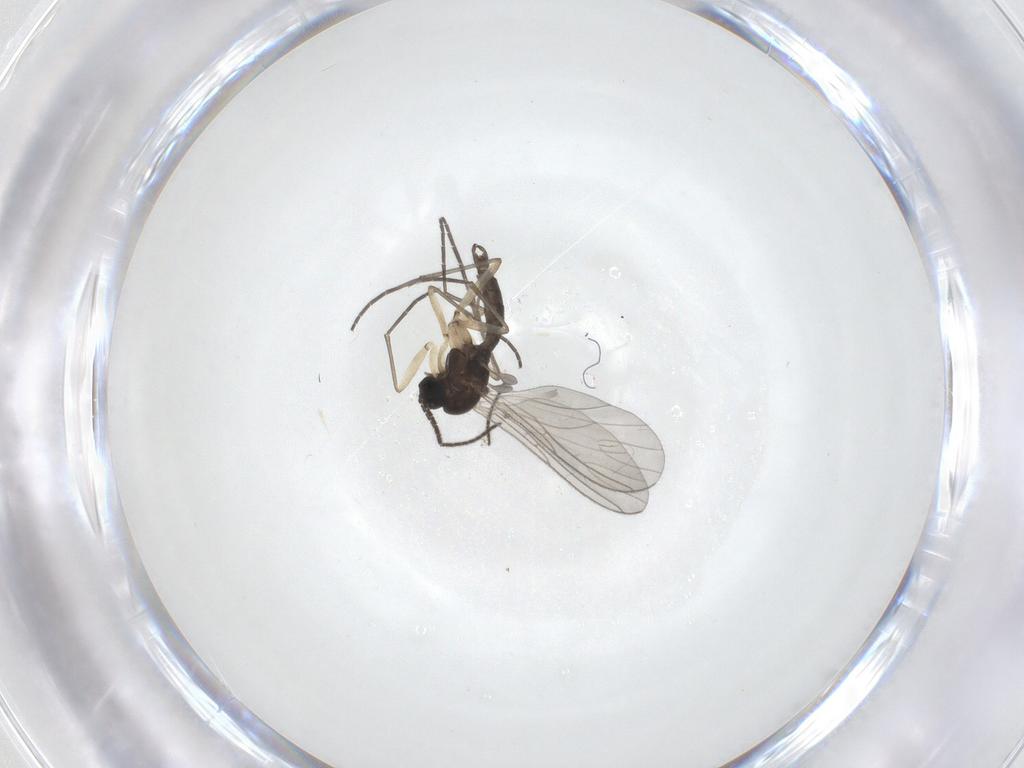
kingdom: Animalia
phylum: Arthropoda
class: Insecta
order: Diptera
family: Sciaridae
